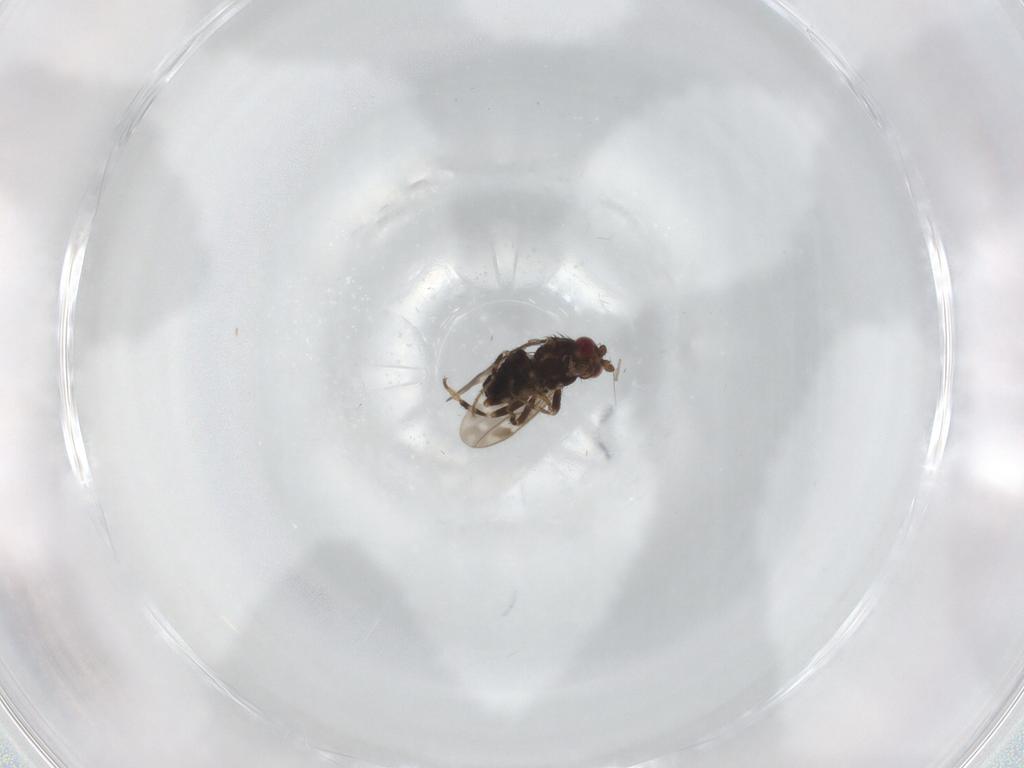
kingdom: Animalia
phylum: Arthropoda
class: Insecta
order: Diptera
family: Sphaeroceridae
